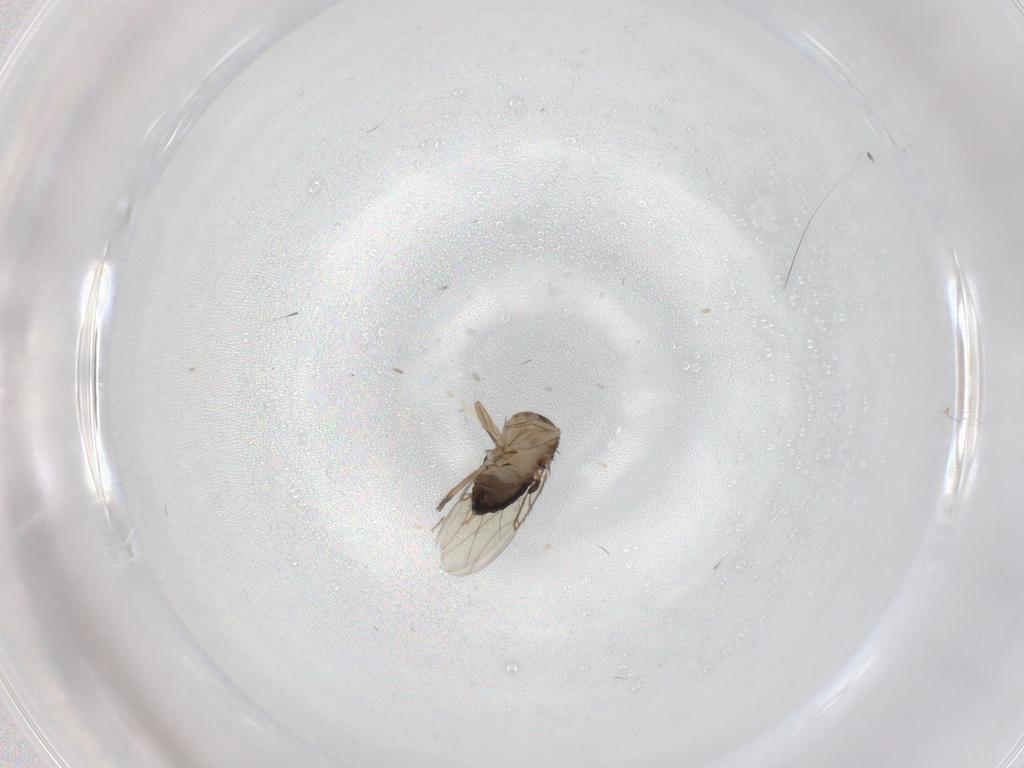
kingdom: Animalia
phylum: Arthropoda
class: Insecta
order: Diptera
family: Phoridae
